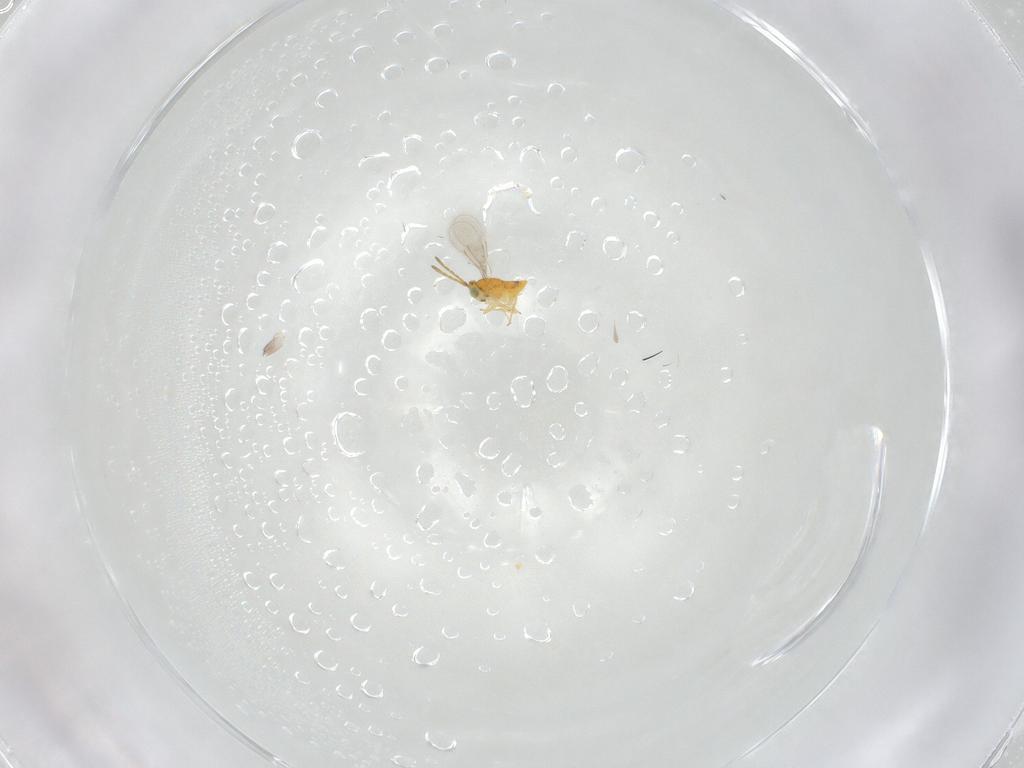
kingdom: Animalia
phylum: Arthropoda
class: Insecta
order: Hymenoptera
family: Aphelinidae
